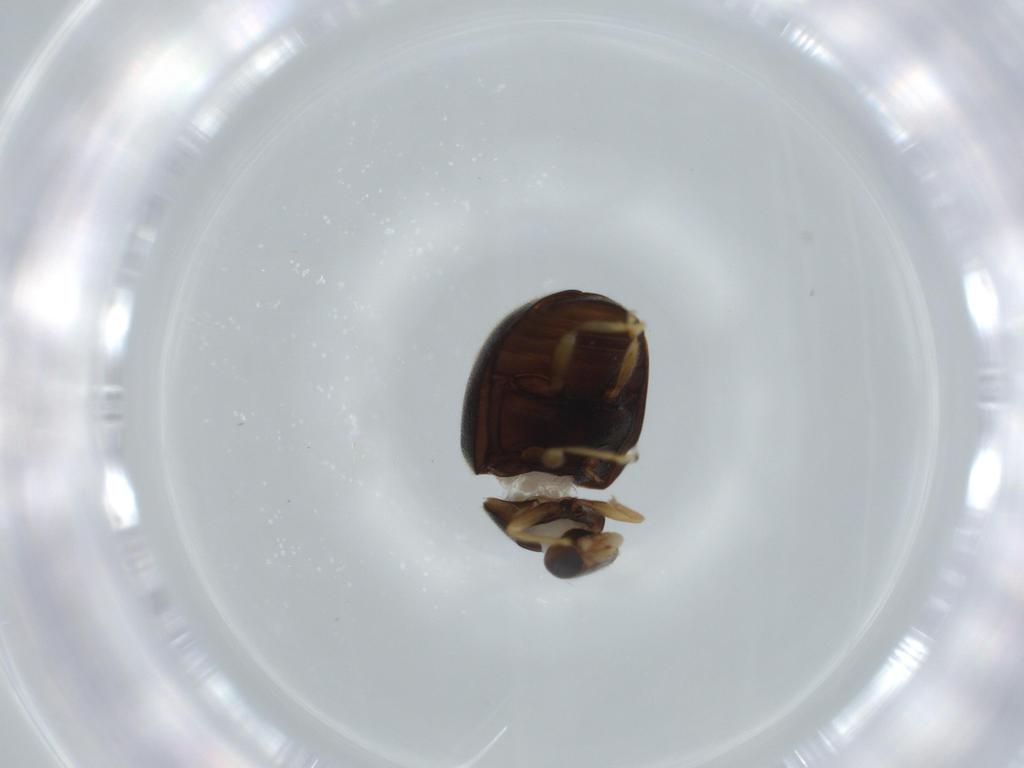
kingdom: Animalia
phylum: Arthropoda
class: Insecta
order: Coleoptera
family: Coccinellidae
